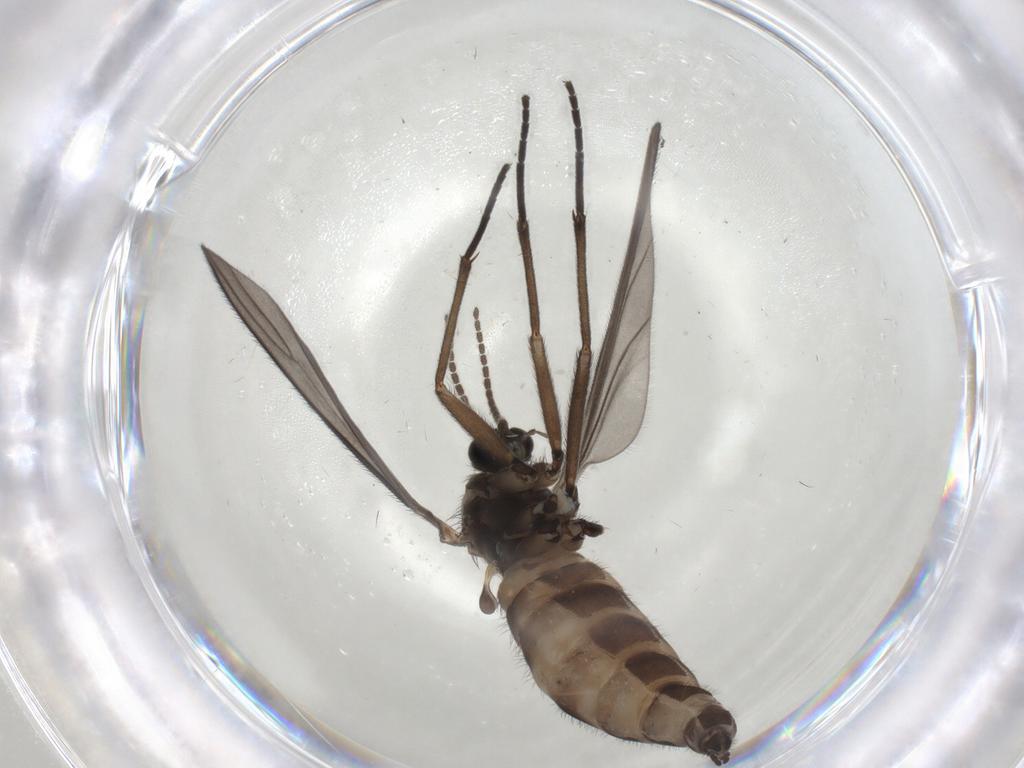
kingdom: Animalia
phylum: Arthropoda
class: Insecta
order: Diptera
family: Sciaridae
